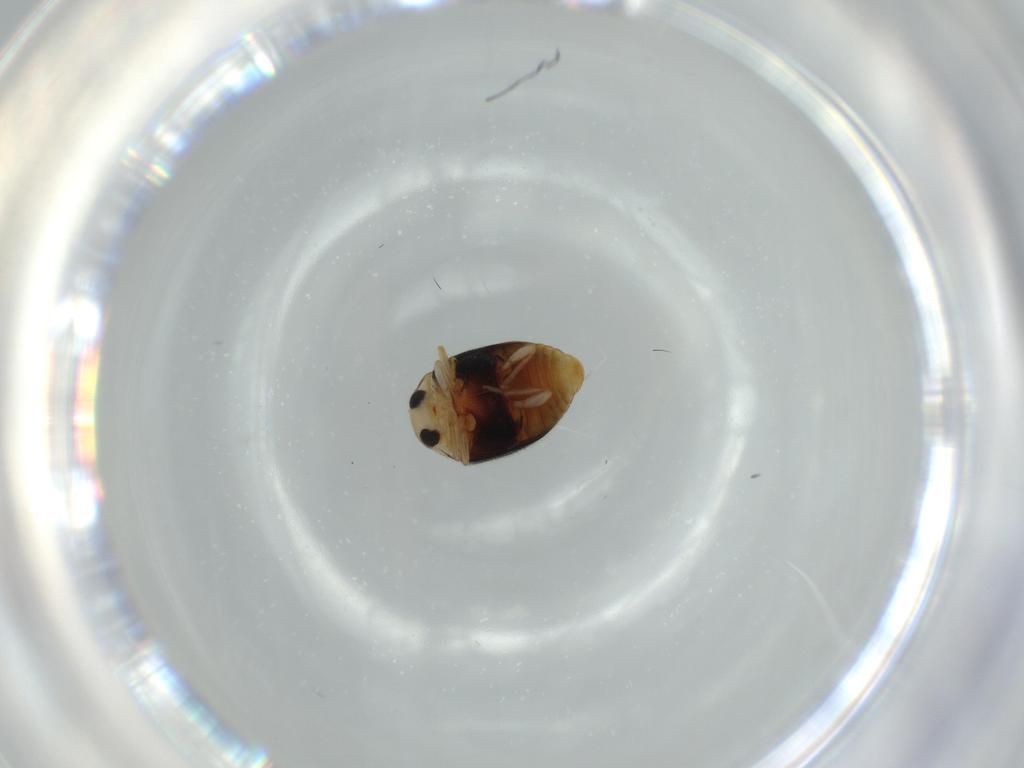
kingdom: Animalia
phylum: Arthropoda
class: Insecta
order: Coleoptera
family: Coccinellidae
